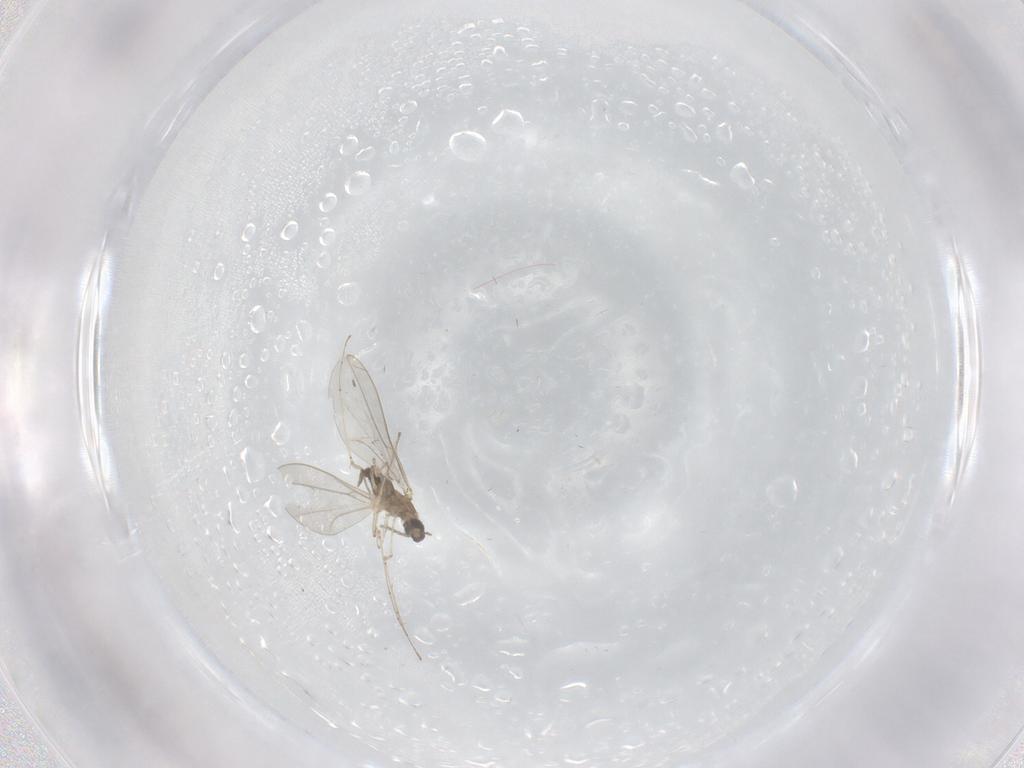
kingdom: Animalia
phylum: Arthropoda
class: Insecta
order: Diptera
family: Cecidomyiidae
